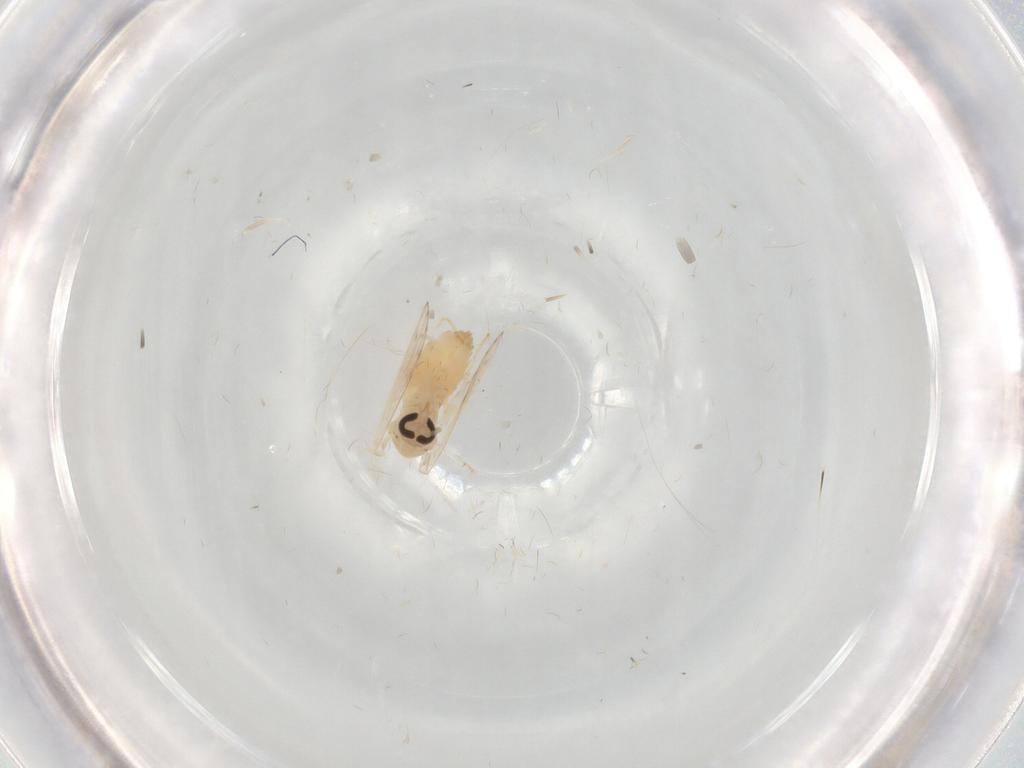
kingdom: Animalia
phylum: Arthropoda
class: Insecta
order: Diptera
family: Psychodidae
